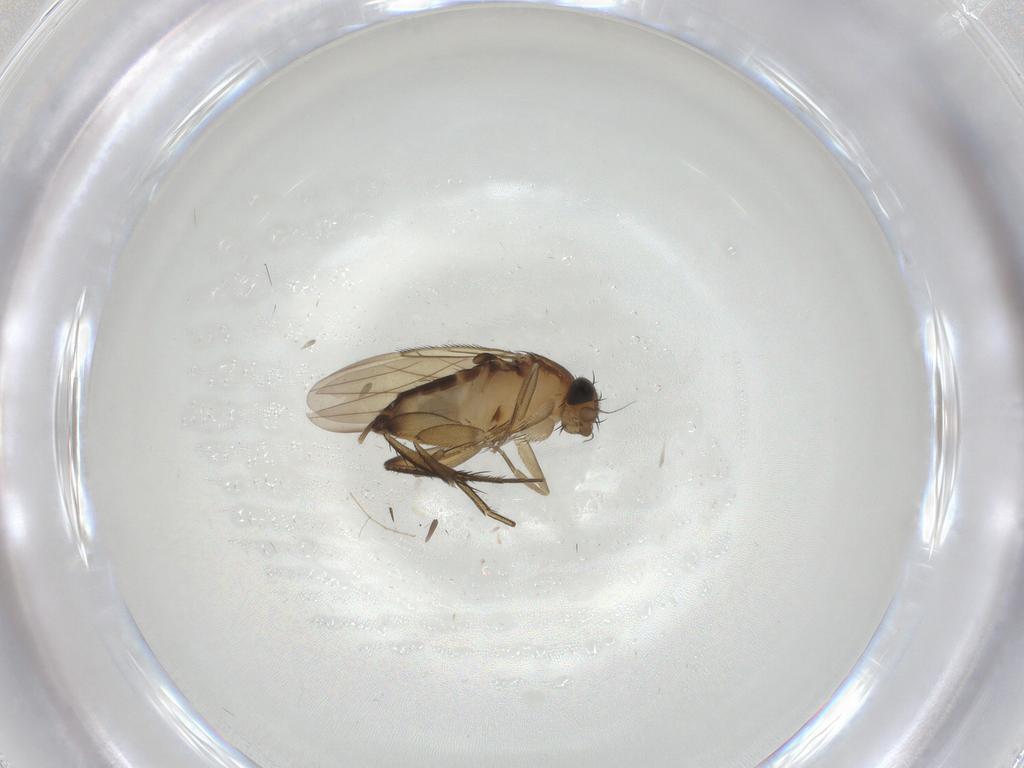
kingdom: Animalia
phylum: Arthropoda
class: Insecta
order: Diptera
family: Phoridae
